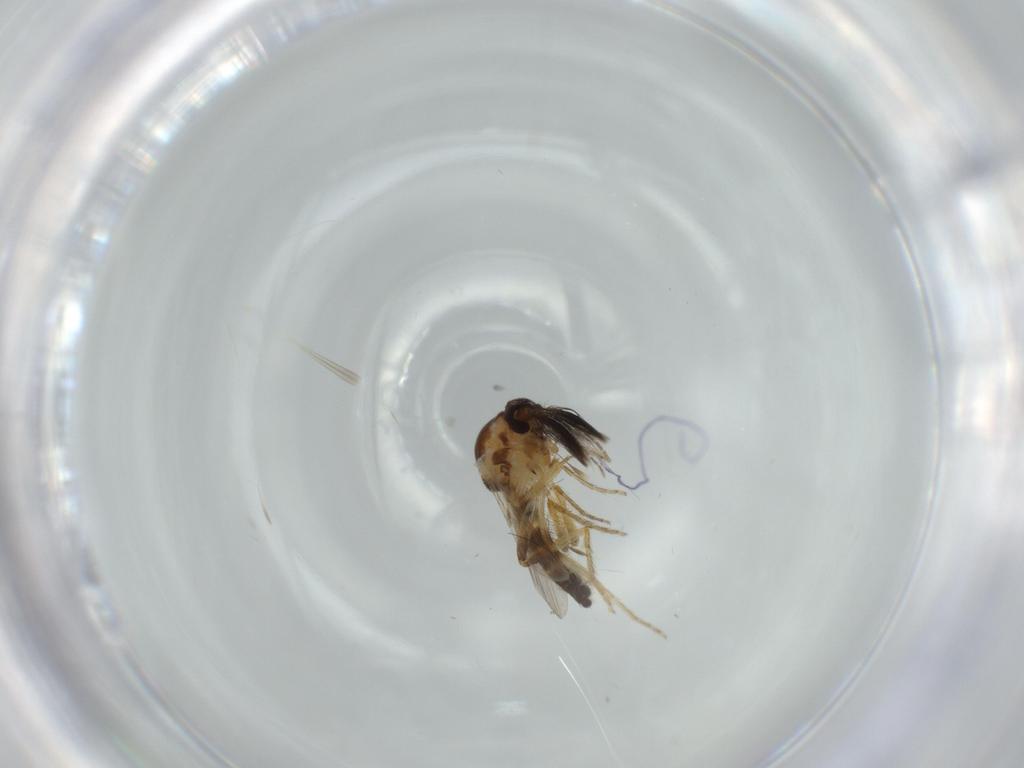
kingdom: Animalia
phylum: Arthropoda
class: Insecta
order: Diptera
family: Ceratopogonidae
